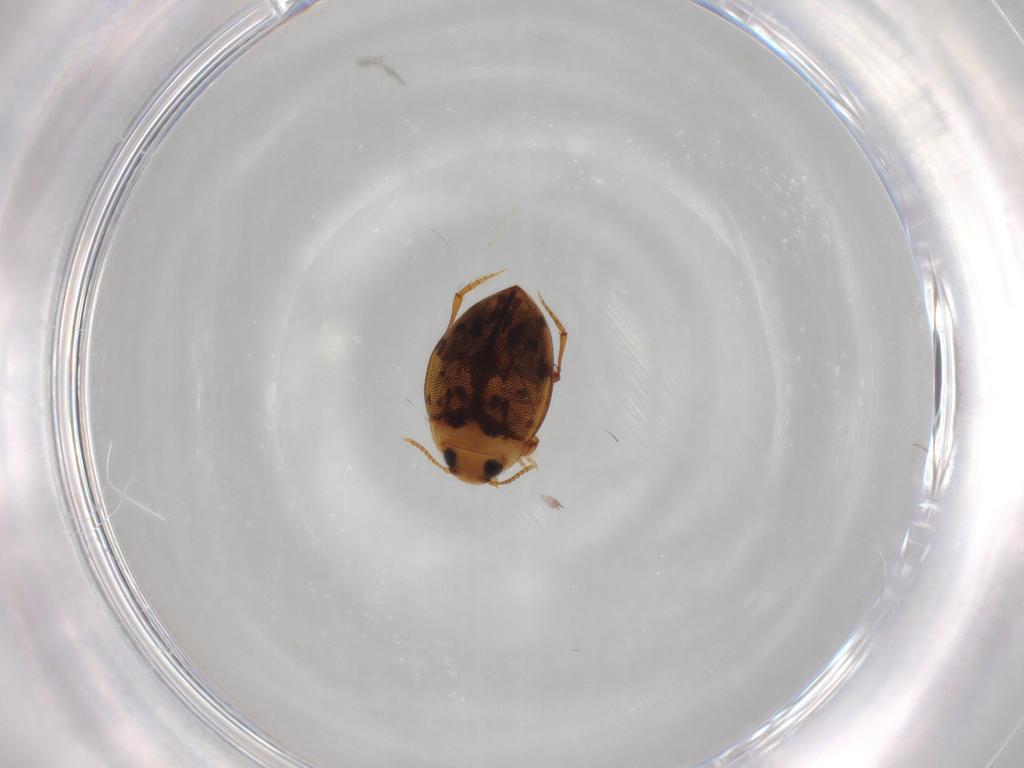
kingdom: Animalia
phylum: Arthropoda
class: Insecta
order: Coleoptera
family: Dytiscidae
